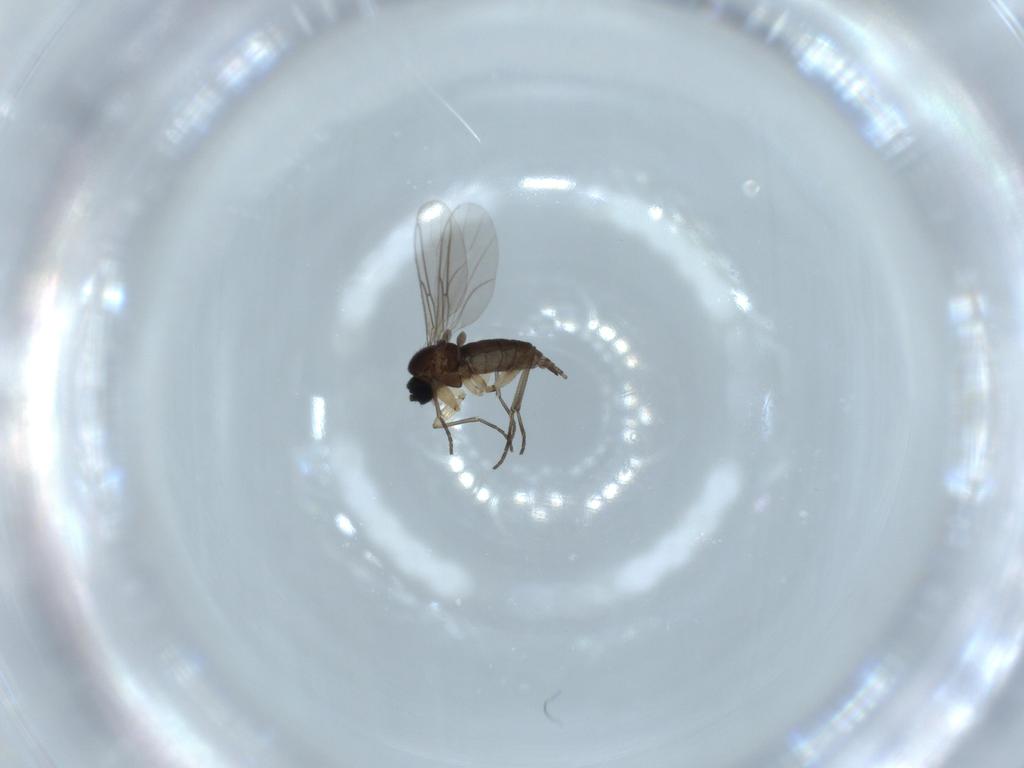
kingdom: Animalia
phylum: Arthropoda
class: Insecta
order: Diptera
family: Sciaridae
